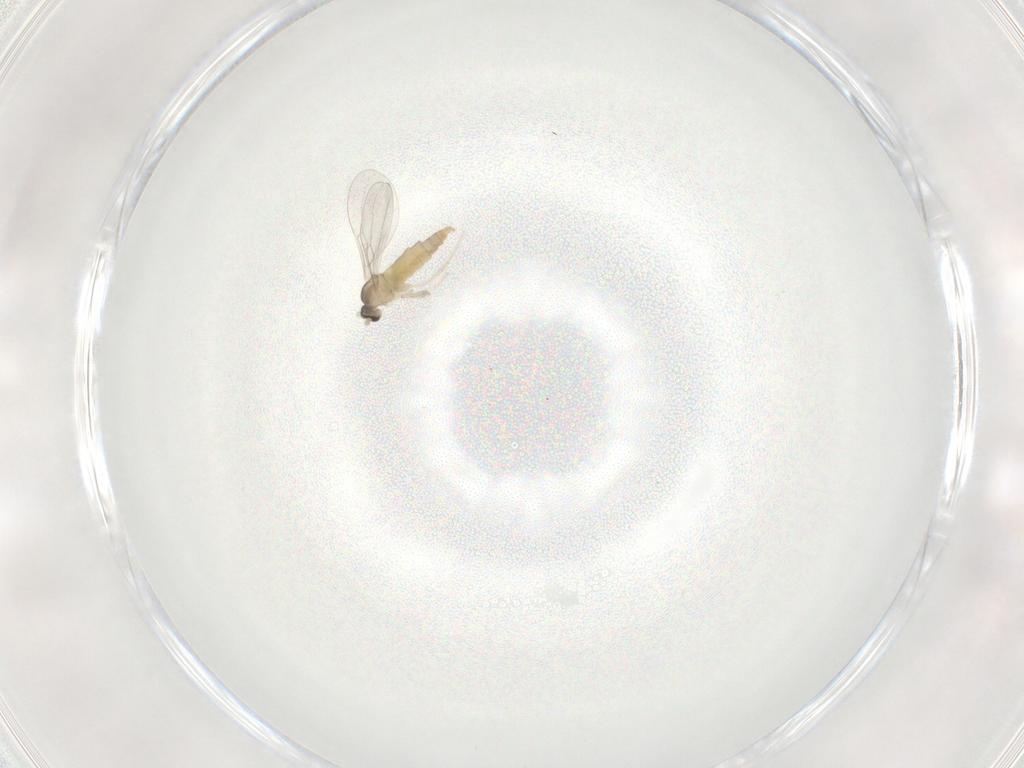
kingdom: Animalia
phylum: Arthropoda
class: Insecta
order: Diptera
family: Cecidomyiidae
